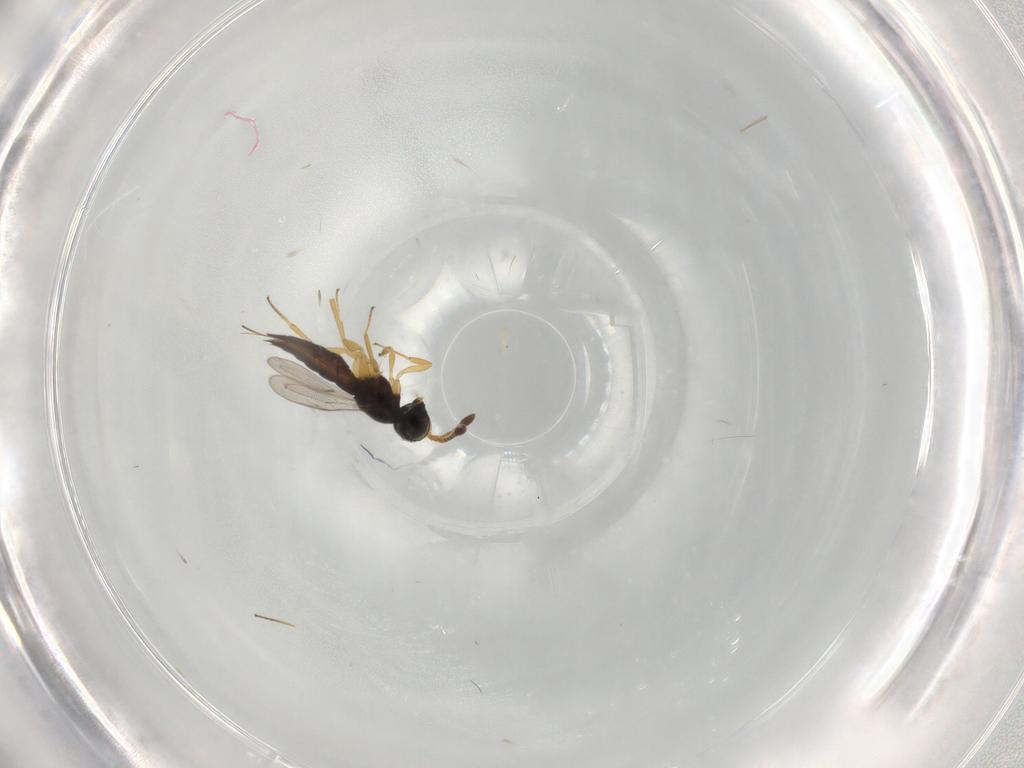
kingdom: Animalia
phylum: Arthropoda
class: Insecta
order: Hymenoptera
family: Scelionidae
